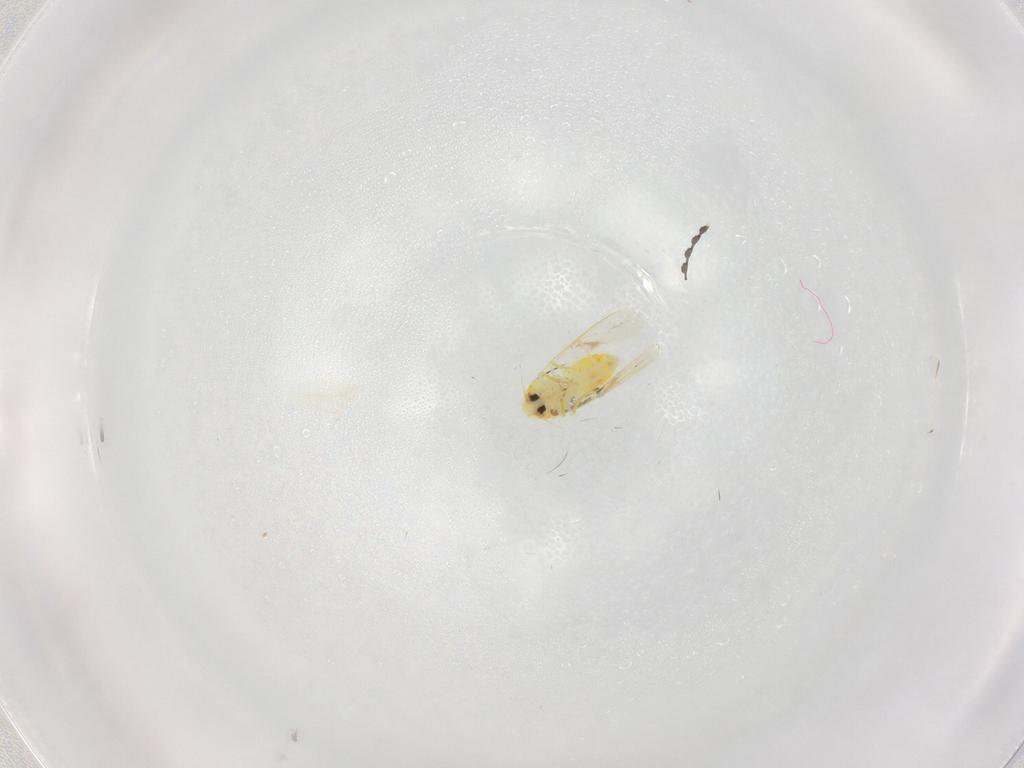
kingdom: Animalia
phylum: Arthropoda
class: Insecta
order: Hemiptera
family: Aleyrodidae
